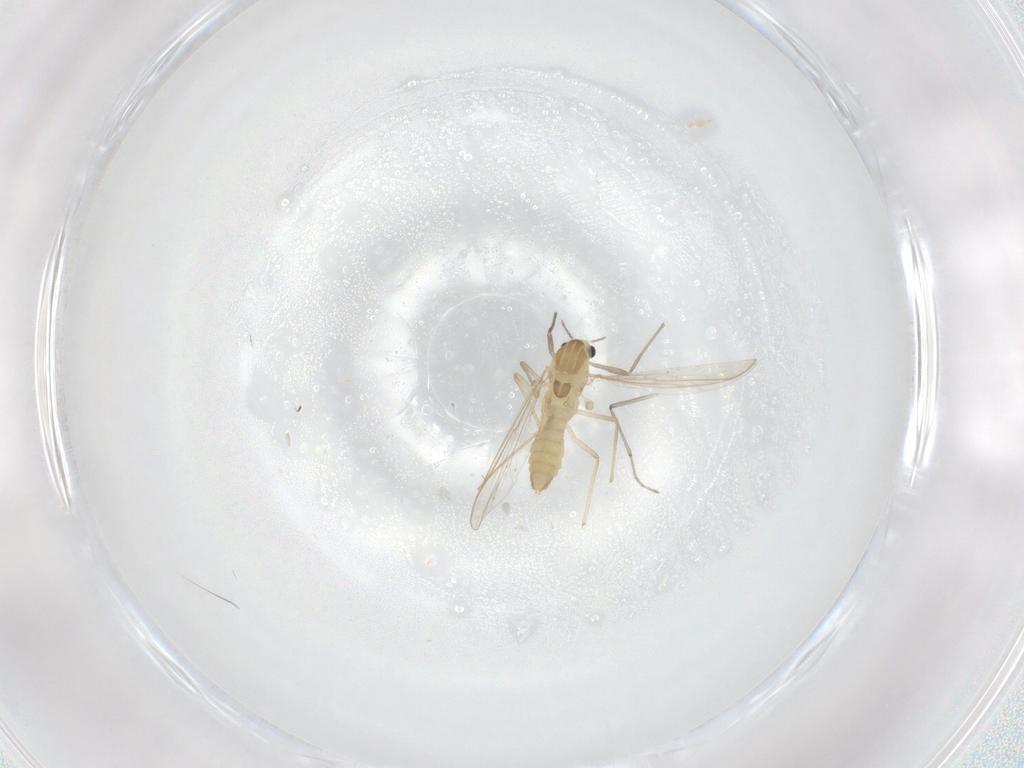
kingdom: Animalia
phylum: Arthropoda
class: Insecta
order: Diptera
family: Chironomidae
